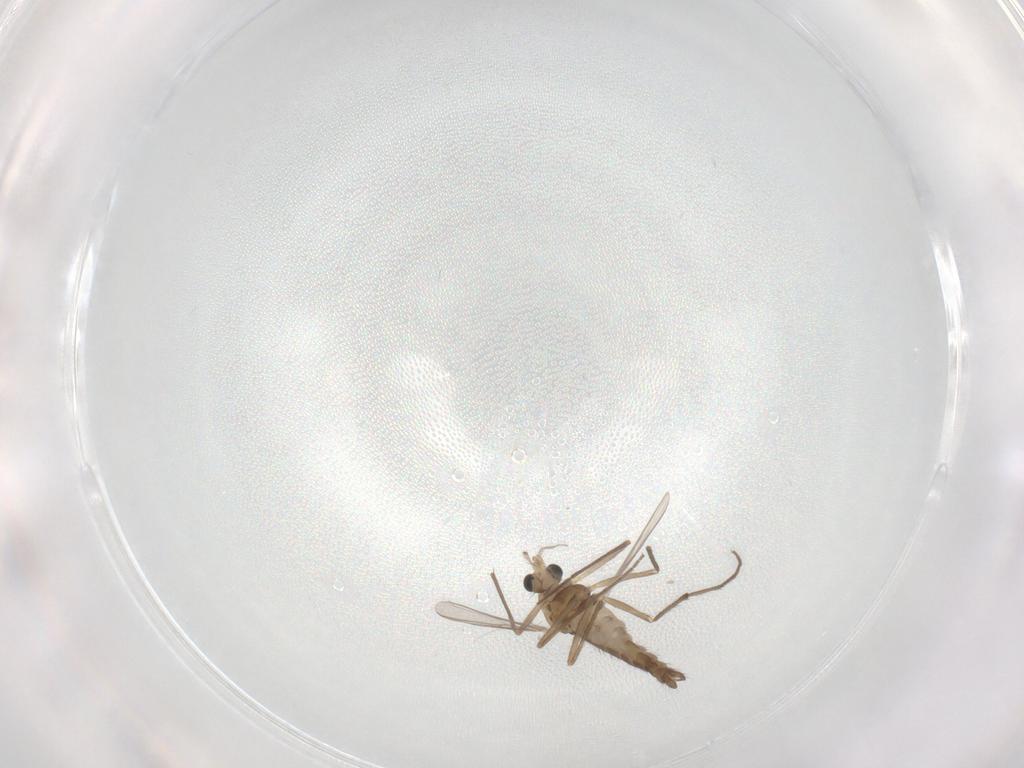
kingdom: Animalia
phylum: Arthropoda
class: Insecta
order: Diptera
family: Chironomidae
